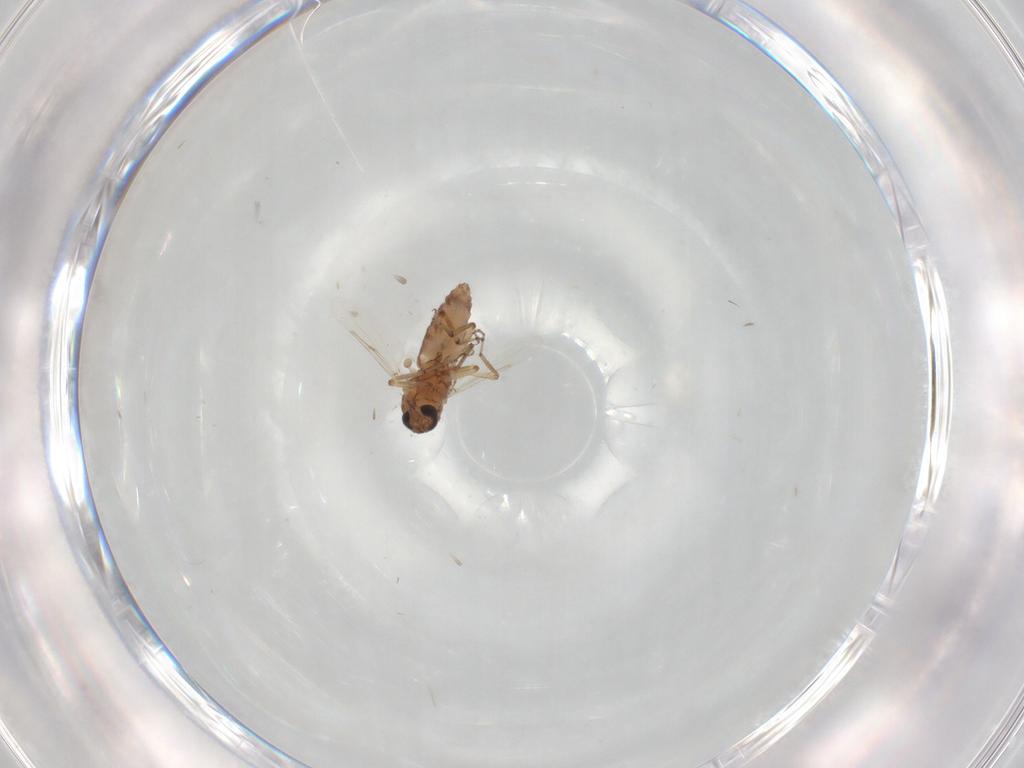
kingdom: Animalia
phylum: Arthropoda
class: Insecta
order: Diptera
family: Ceratopogonidae
